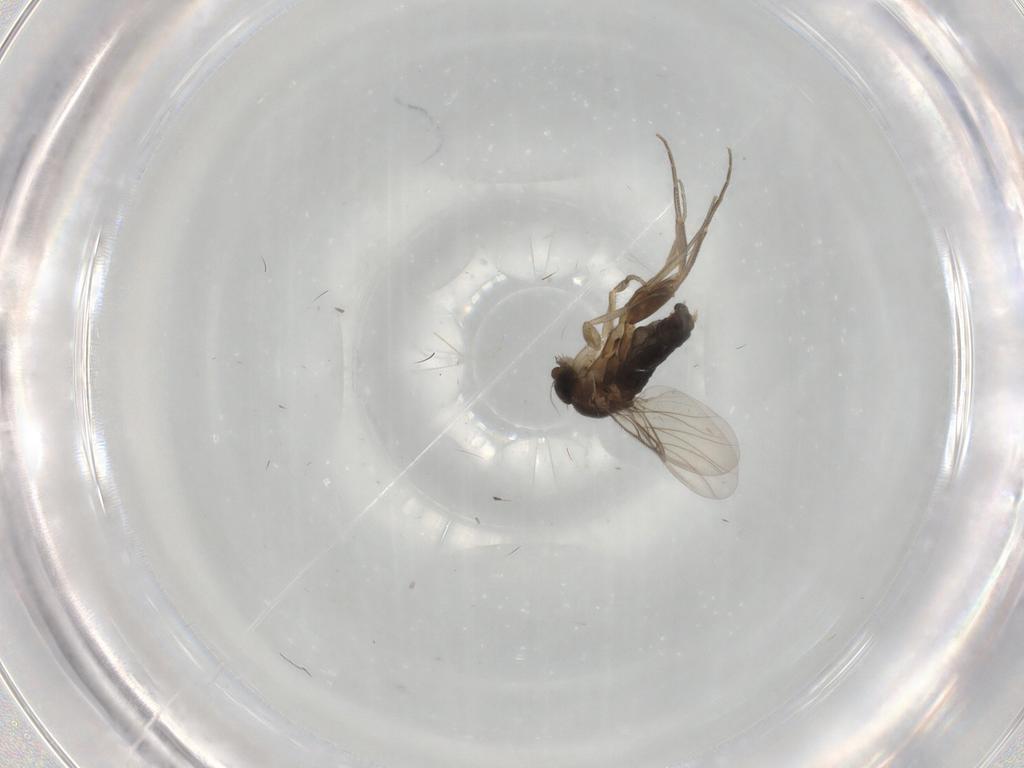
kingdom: Animalia
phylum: Arthropoda
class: Insecta
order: Diptera
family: Phoridae
